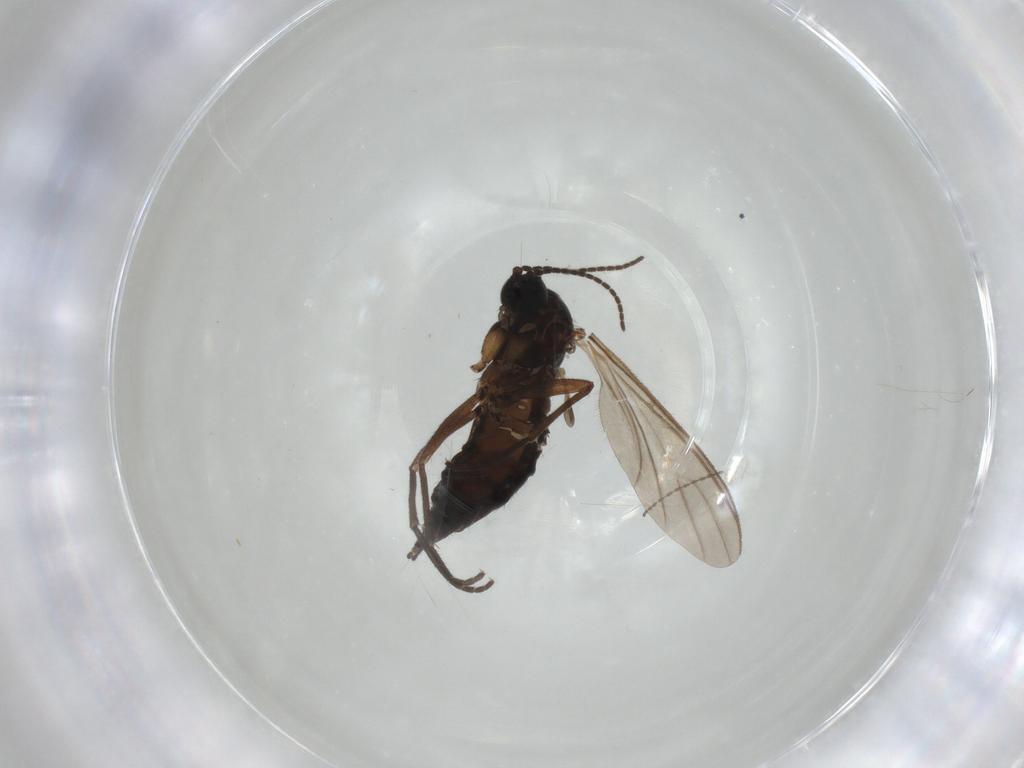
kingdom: Animalia
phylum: Arthropoda
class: Insecta
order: Diptera
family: Sciaridae
